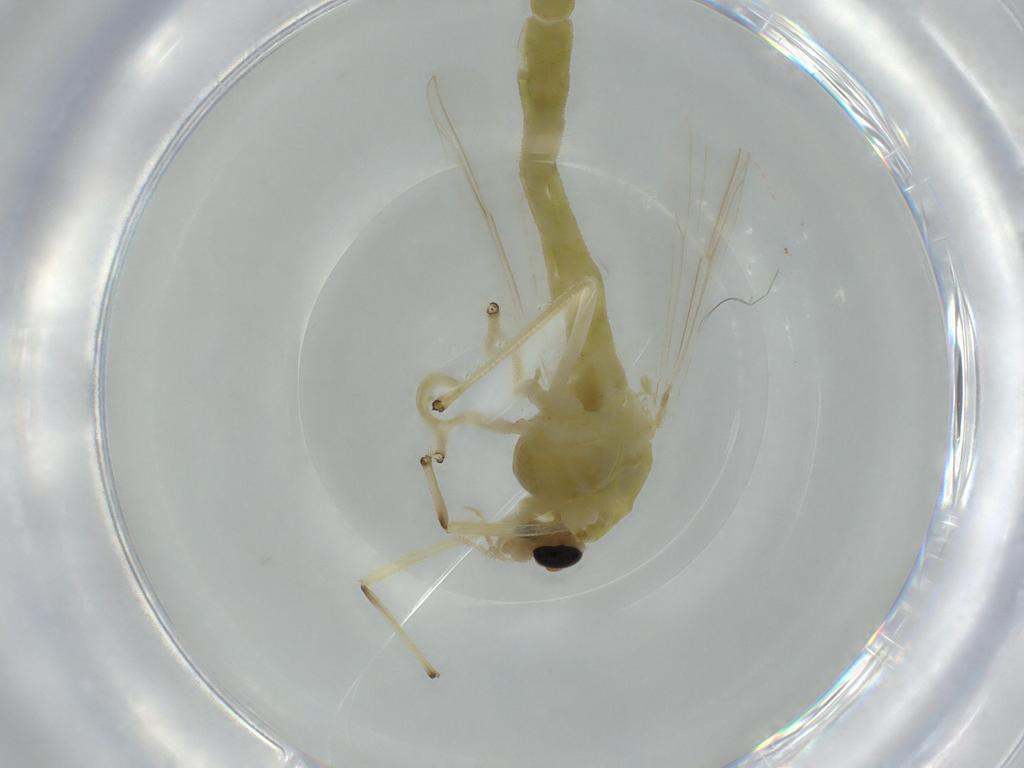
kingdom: Animalia
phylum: Arthropoda
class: Insecta
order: Diptera
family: Chironomidae
